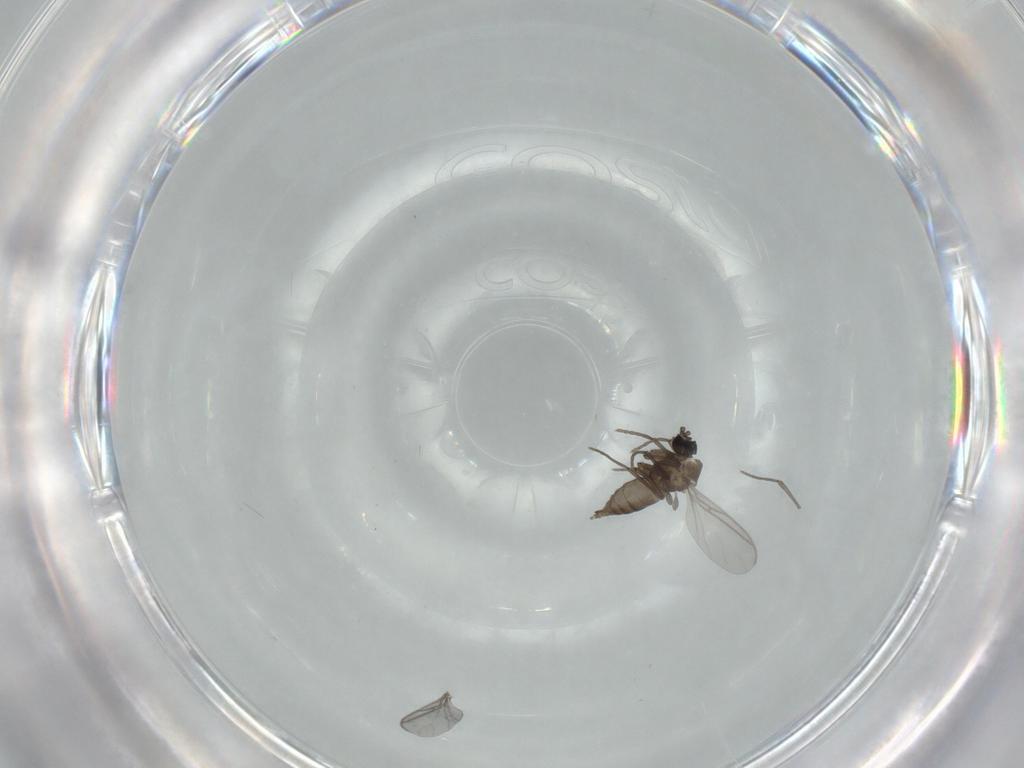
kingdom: Animalia
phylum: Arthropoda
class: Insecta
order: Diptera
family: Sciaridae
